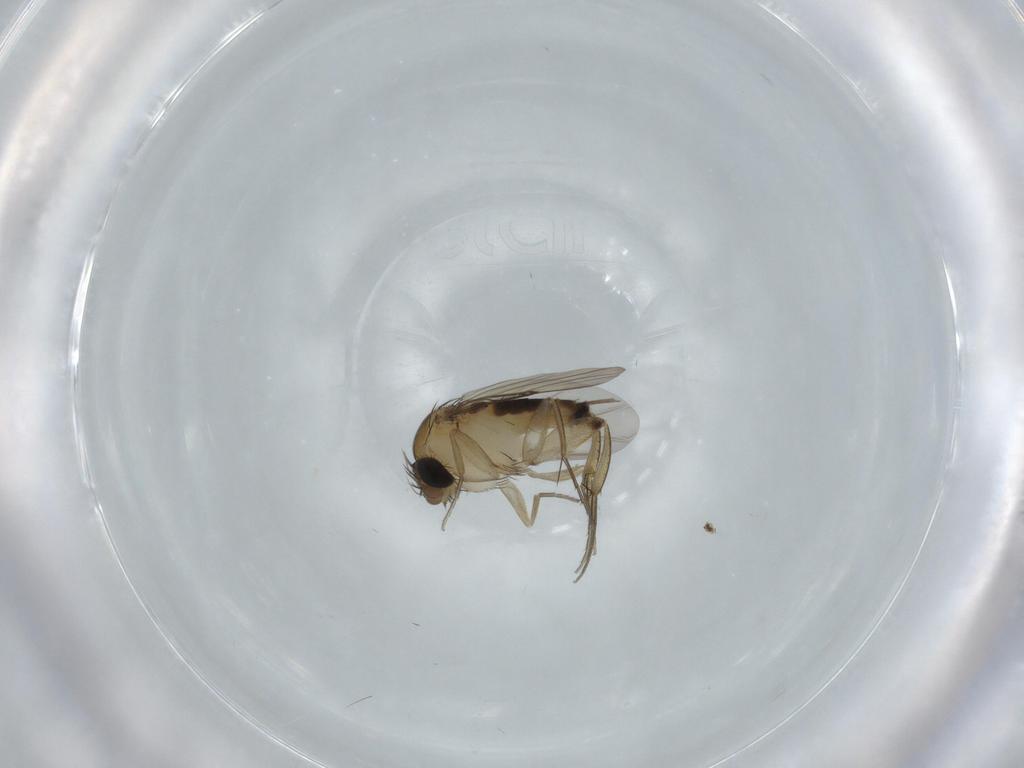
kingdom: Animalia
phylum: Arthropoda
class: Insecta
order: Diptera
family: Phoridae
